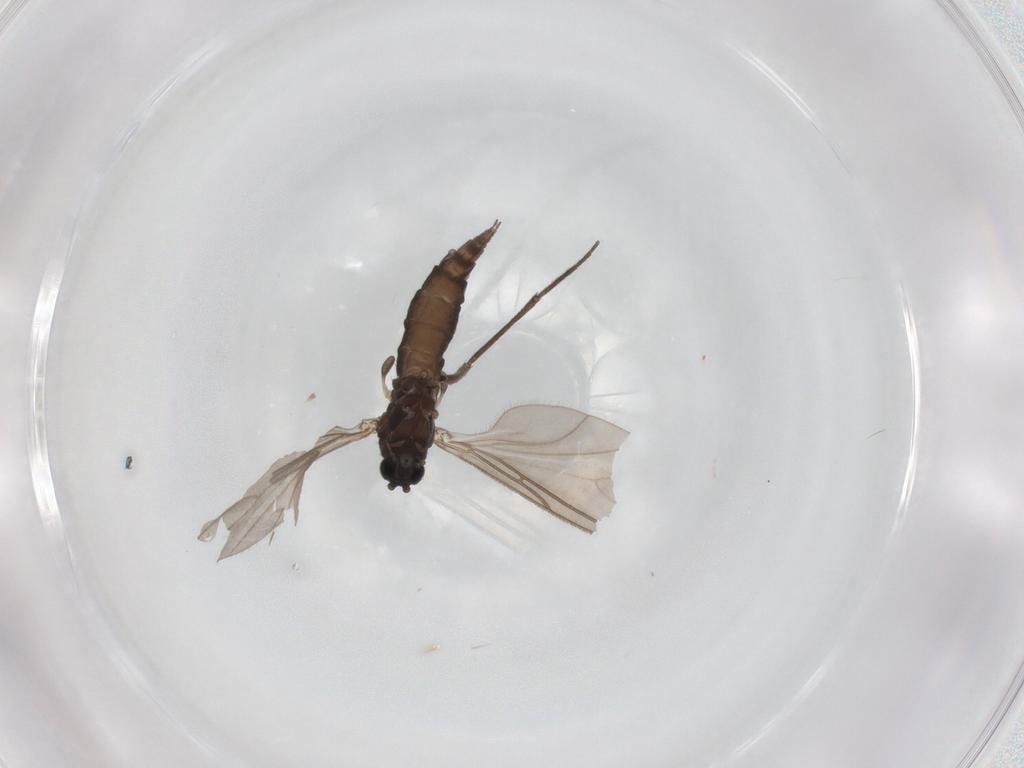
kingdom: Animalia
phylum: Arthropoda
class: Insecta
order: Diptera
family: Sciaridae
